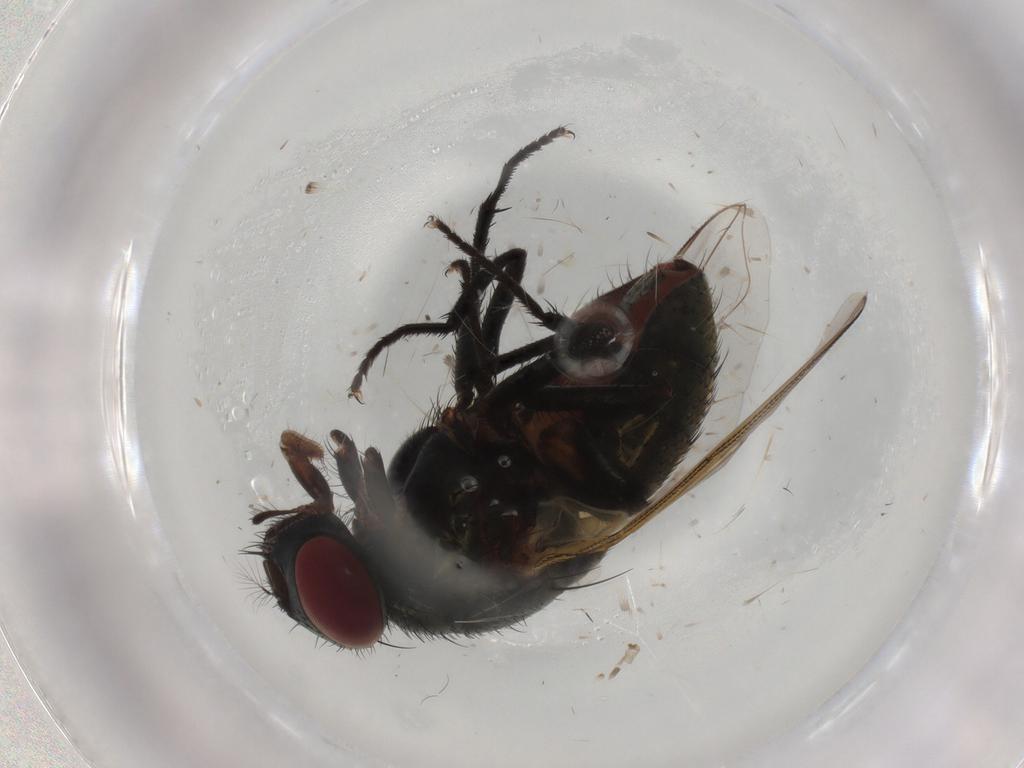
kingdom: Animalia
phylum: Arthropoda
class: Insecta
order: Diptera
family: Muscidae
